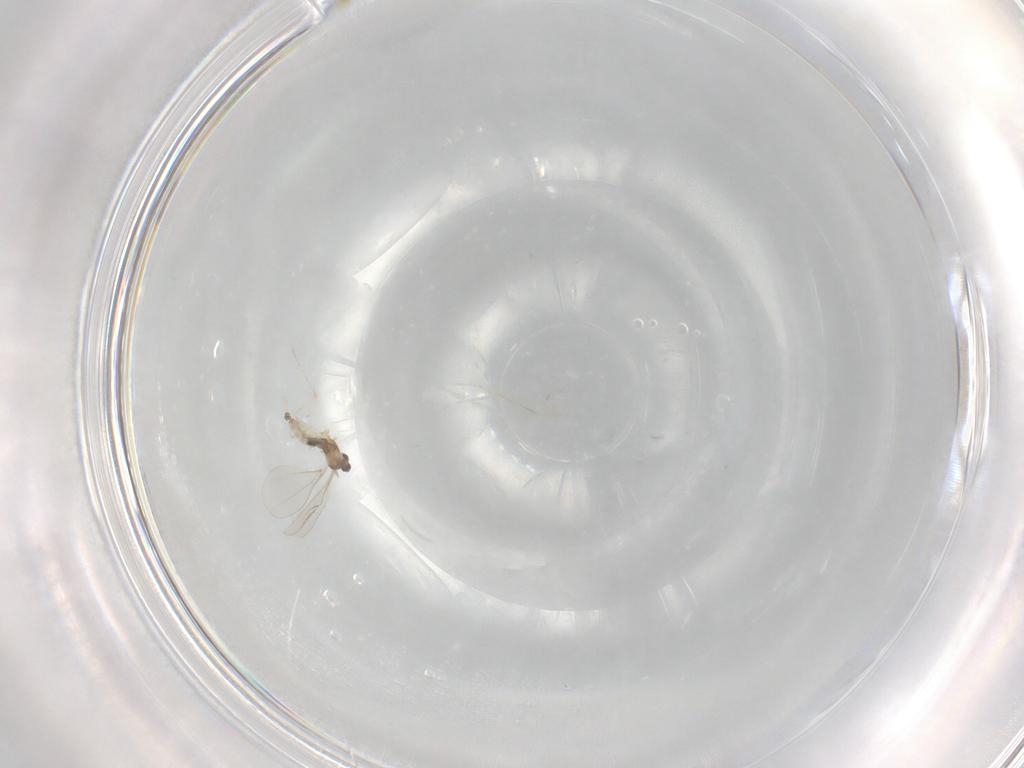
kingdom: Animalia
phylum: Arthropoda
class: Insecta
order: Diptera
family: Cecidomyiidae
